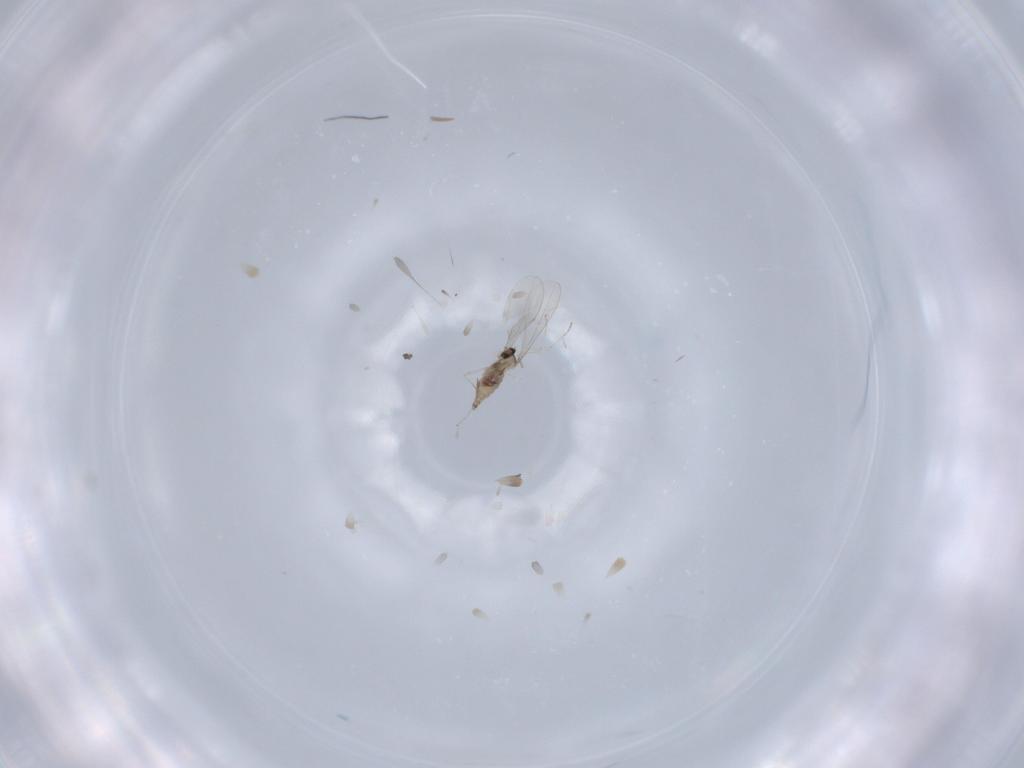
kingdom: Animalia
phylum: Arthropoda
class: Insecta
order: Diptera
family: Cecidomyiidae
